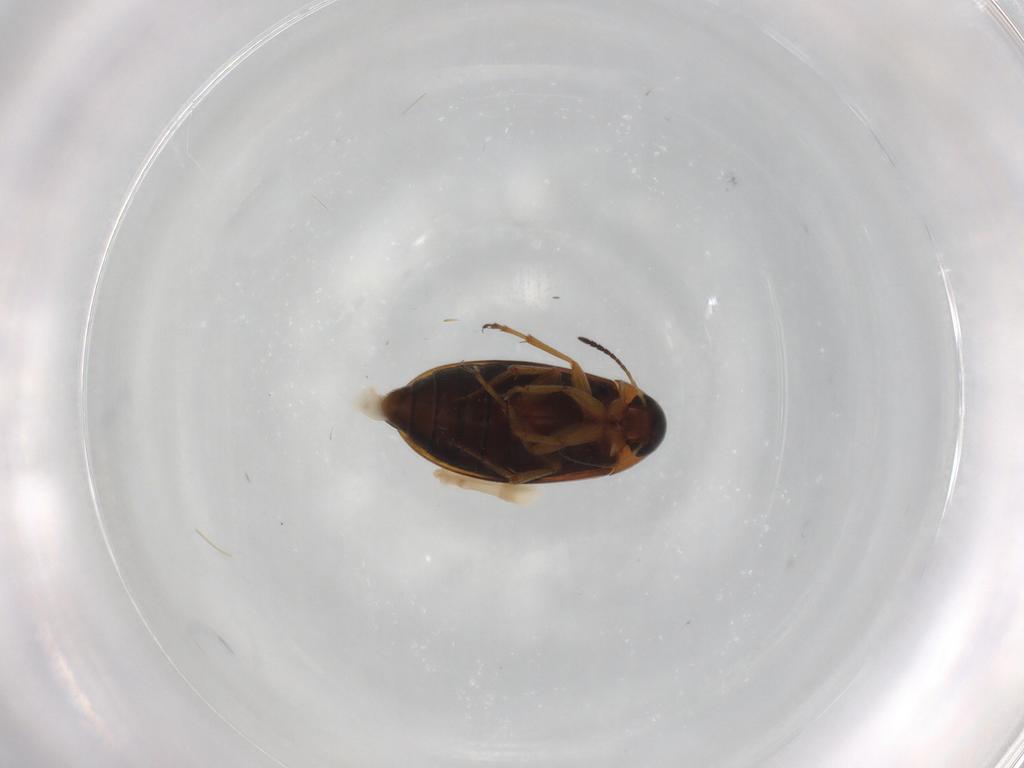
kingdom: Animalia
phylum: Arthropoda
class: Insecta
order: Coleoptera
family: Scraptiidae
